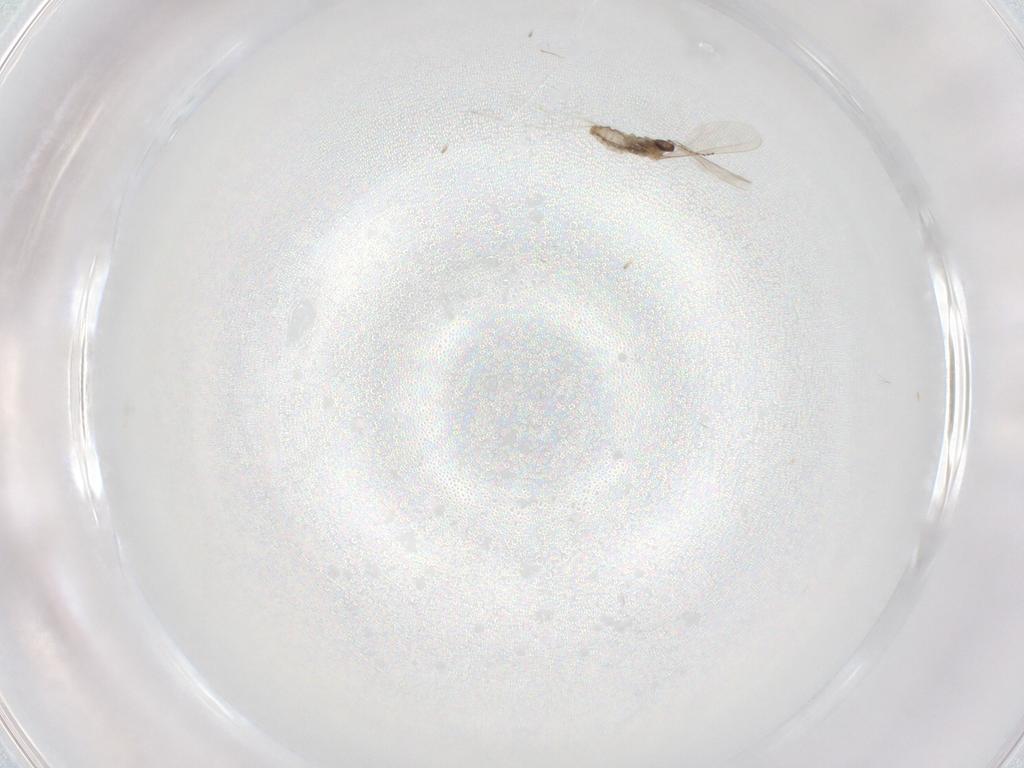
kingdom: Animalia
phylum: Arthropoda
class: Insecta
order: Diptera
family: Cecidomyiidae
